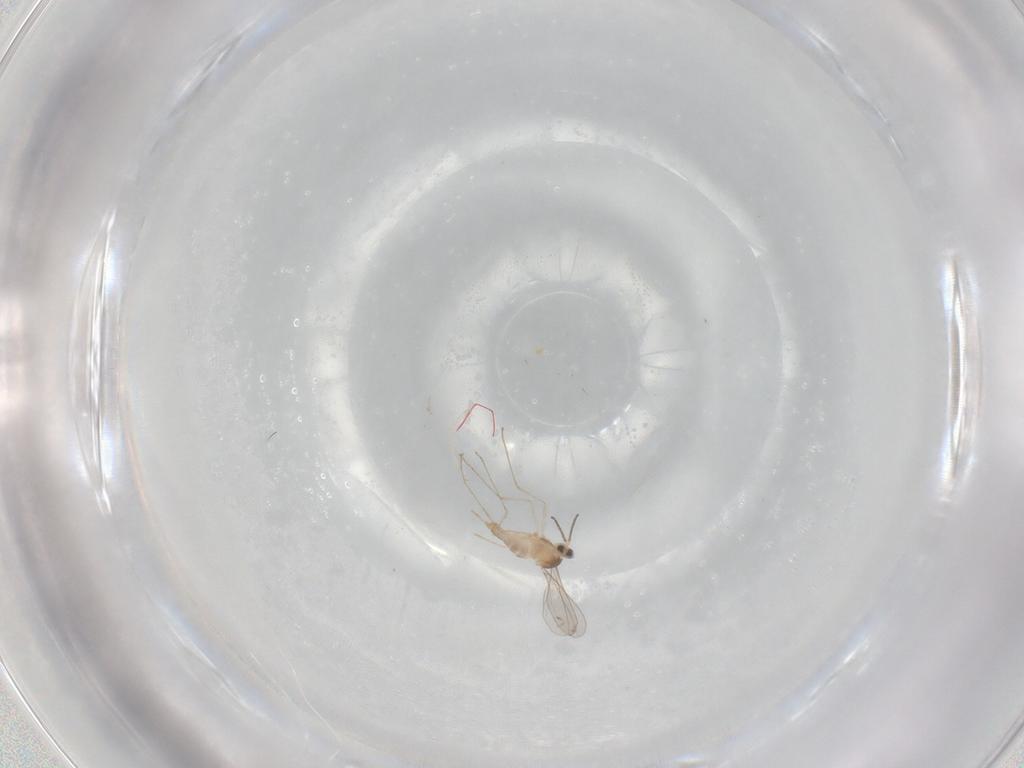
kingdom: Animalia
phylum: Arthropoda
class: Insecta
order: Diptera
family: Cecidomyiidae
